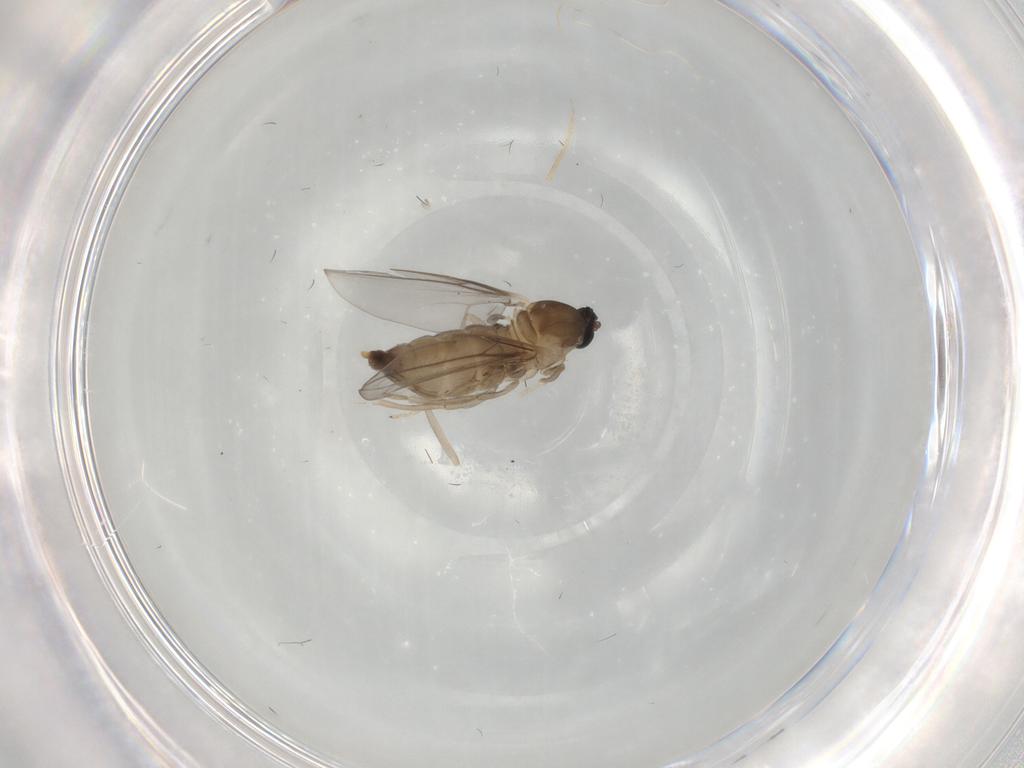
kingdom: Animalia
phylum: Arthropoda
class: Insecta
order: Diptera
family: Cecidomyiidae
